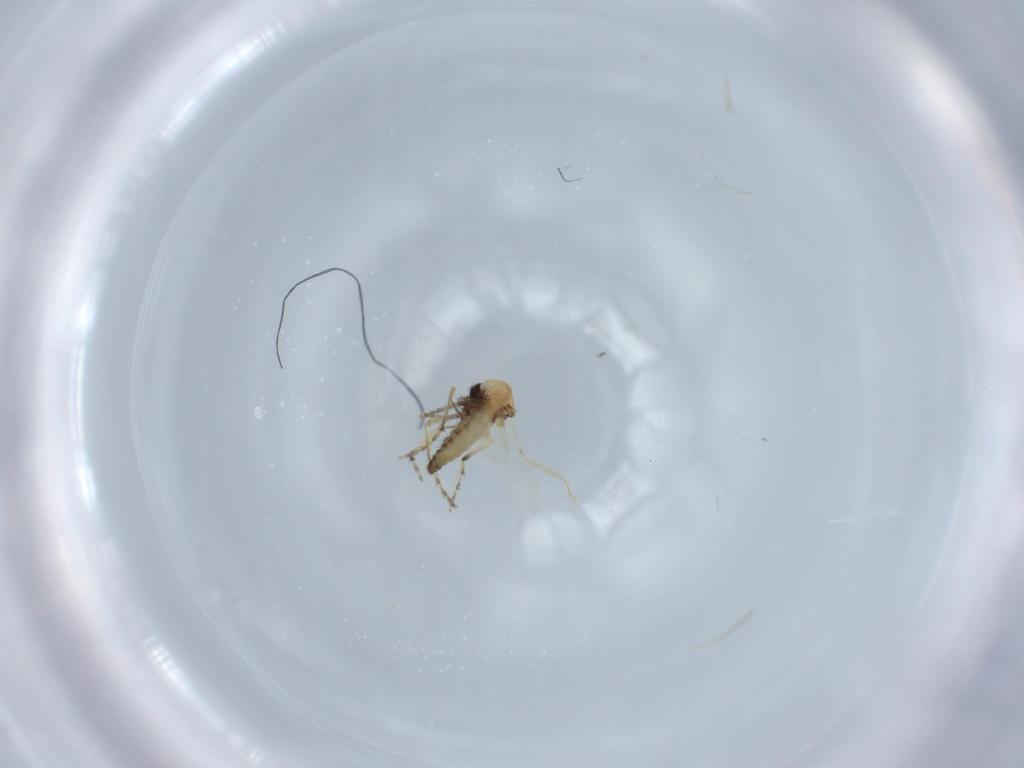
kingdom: Animalia
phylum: Arthropoda
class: Insecta
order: Diptera
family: Ceratopogonidae
